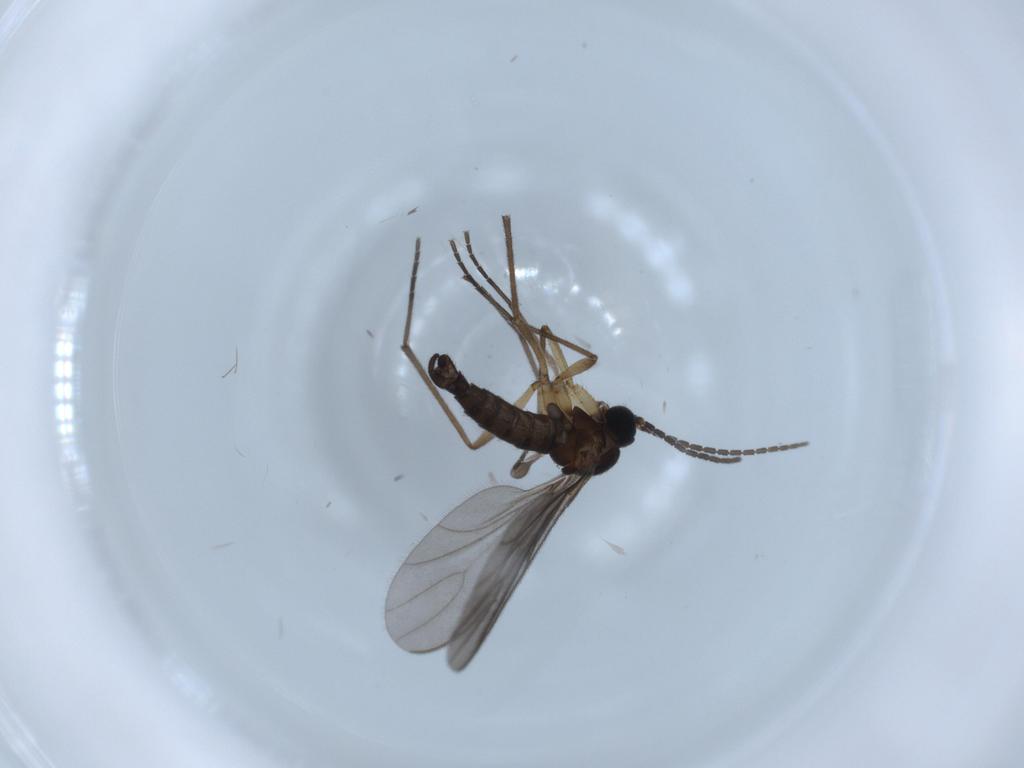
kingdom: Animalia
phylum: Arthropoda
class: Insecta
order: Diptera
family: Sciaridae
